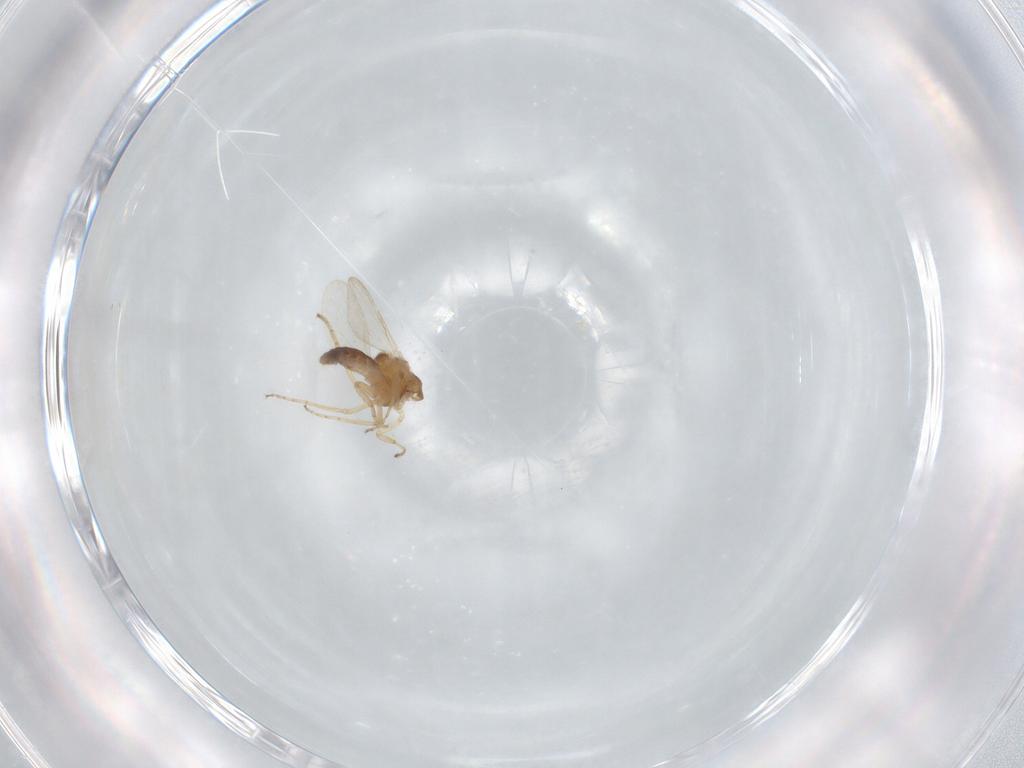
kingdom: Animalia
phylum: Arthropoda
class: Insecta
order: Diptera
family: Ceratopogonidae
